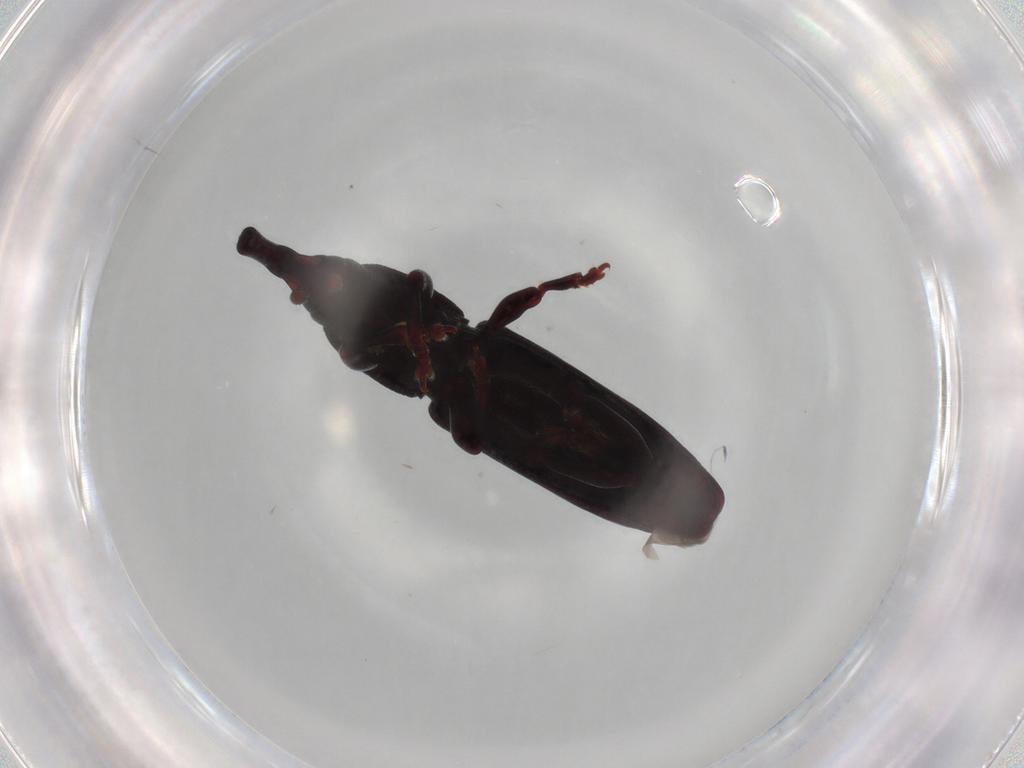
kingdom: Animalia
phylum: Arthropoda
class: Insecta
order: Coleoptera
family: Curculionidae
